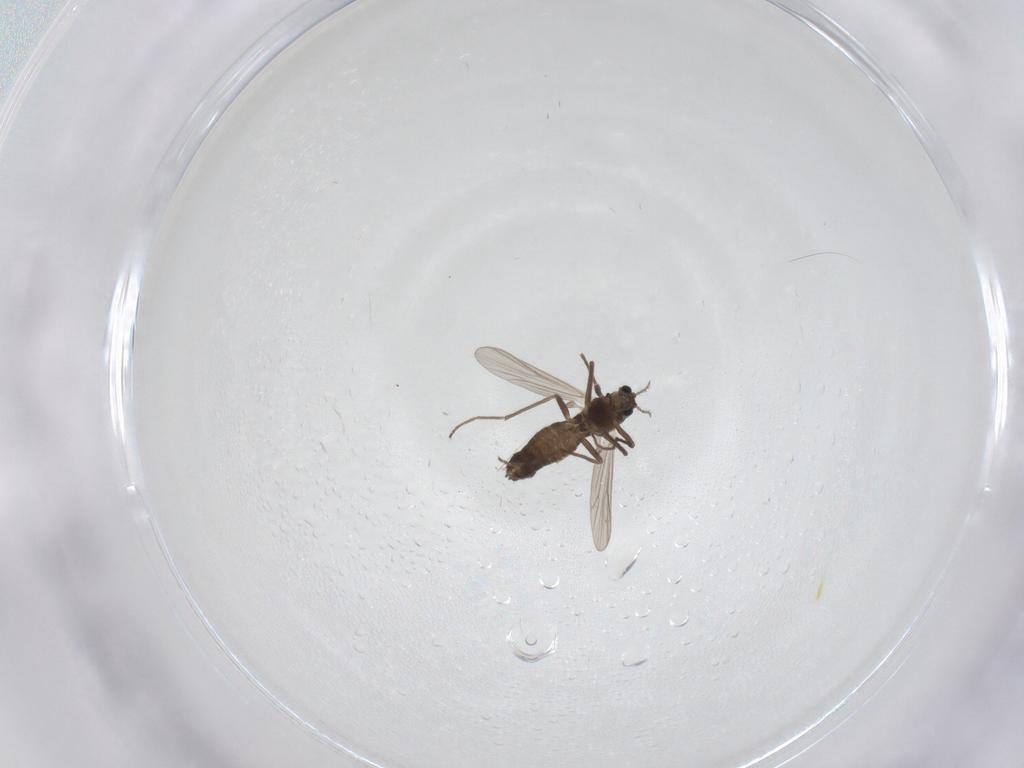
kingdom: Animalia
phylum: Arthropoda
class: Insecta
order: Diptera
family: Chironomidae
